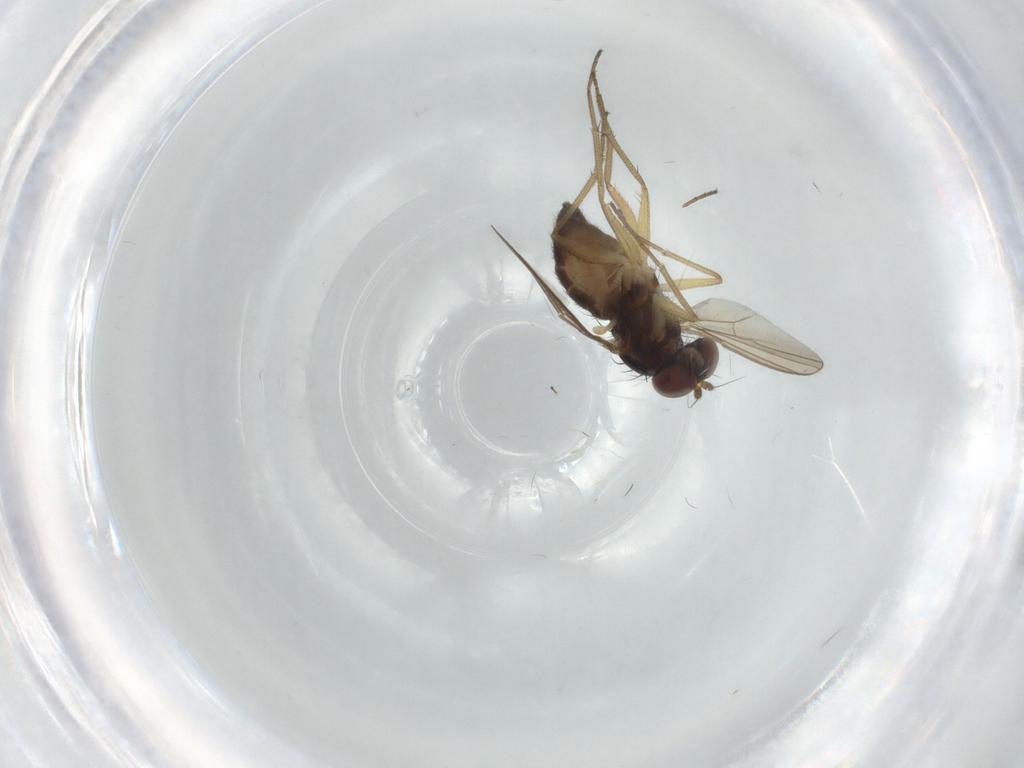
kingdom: Animalia
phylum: Arthropoda
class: Insecta
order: Diptera
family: Dolichopodidae
